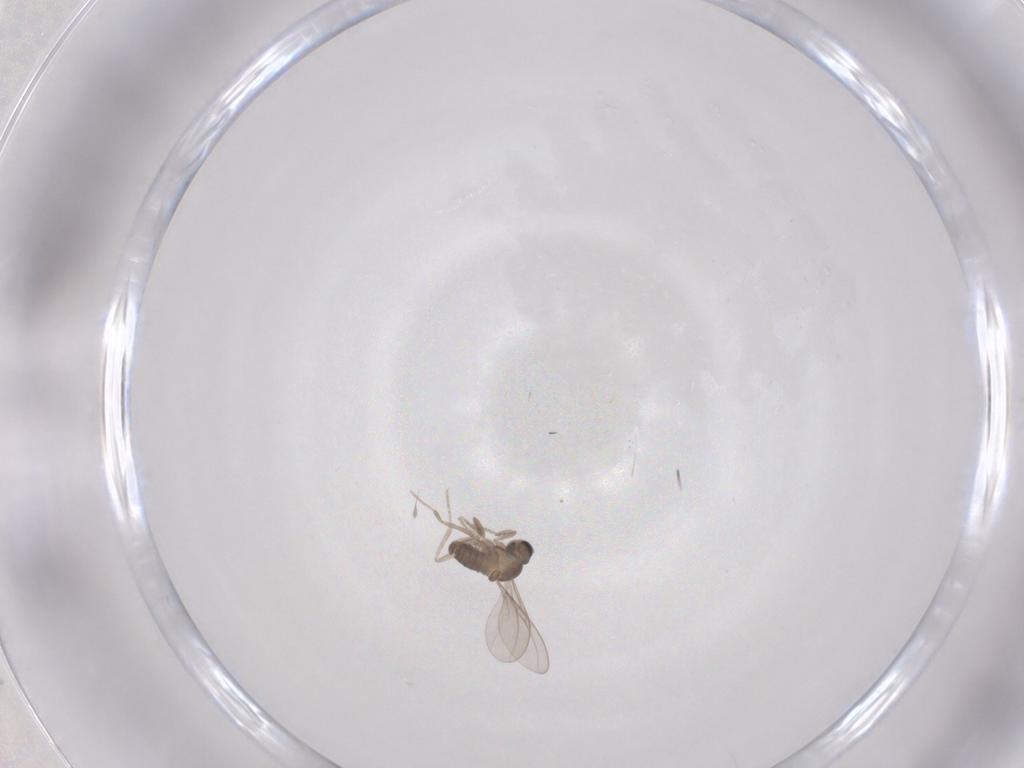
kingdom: Animalia
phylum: Arthropoda
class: Insecta
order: Diptera
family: Cecidomyiidae
